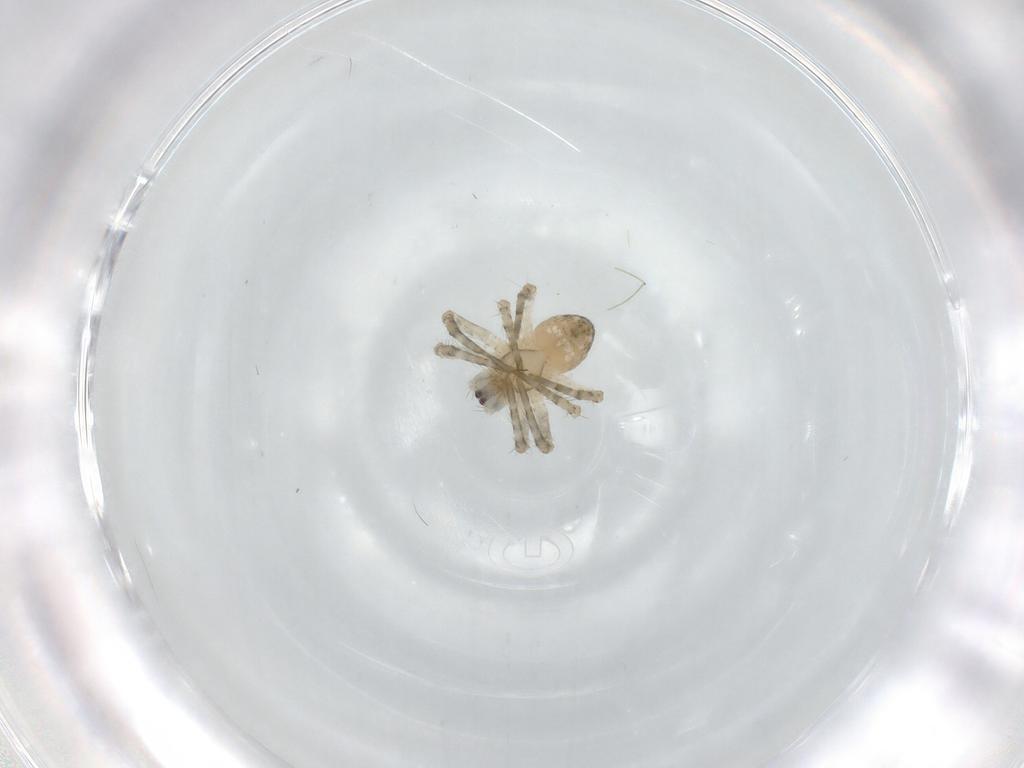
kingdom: Animalia
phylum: Arthropoda
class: Arachnida
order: Araneae
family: Araneidae
